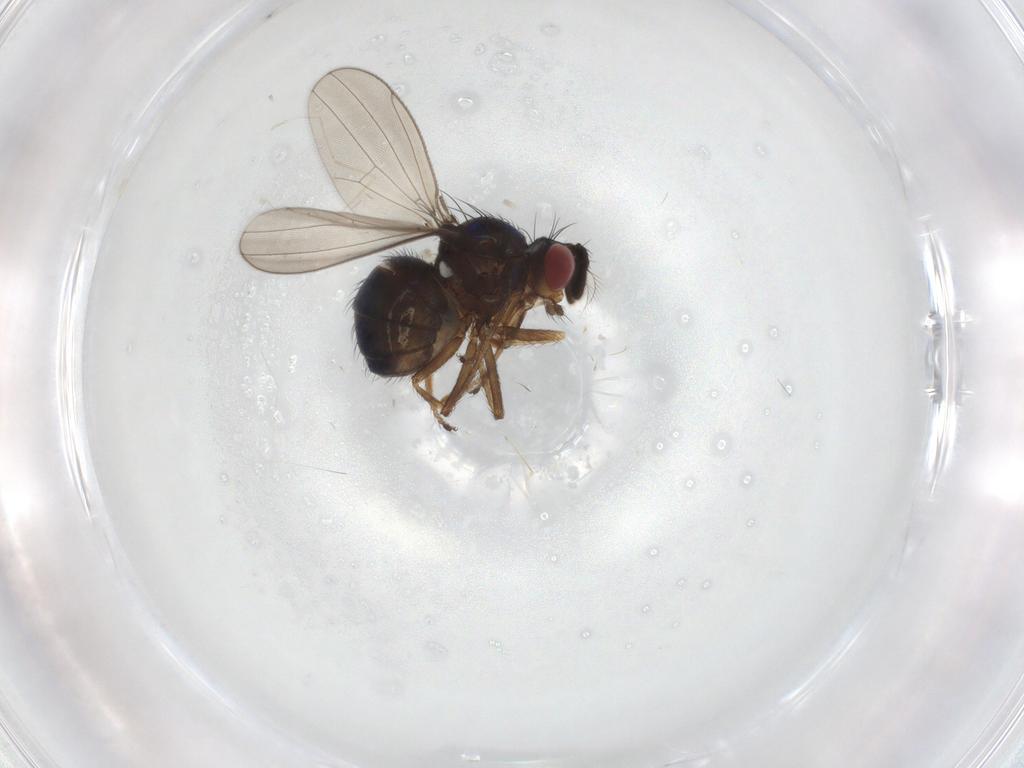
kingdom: Animalia
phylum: Arthropoda
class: Insecta
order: Diptera
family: Ephydridae
